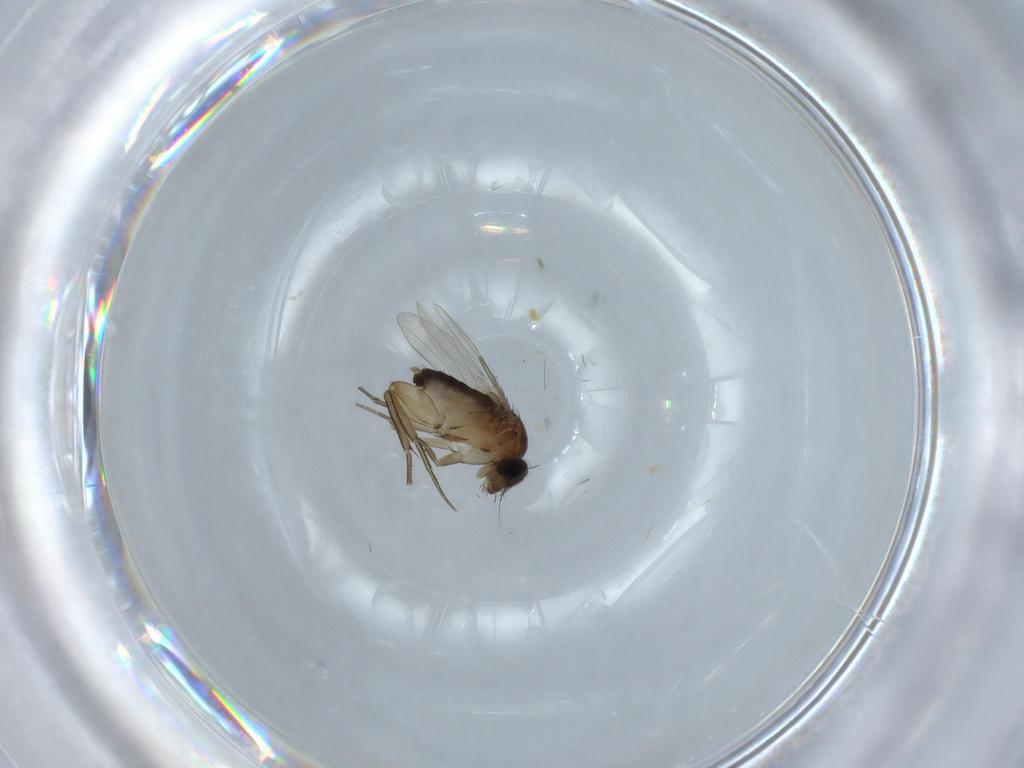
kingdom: Animalia
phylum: Arthropoda
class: Insecta
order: Diptera
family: Phoridae
